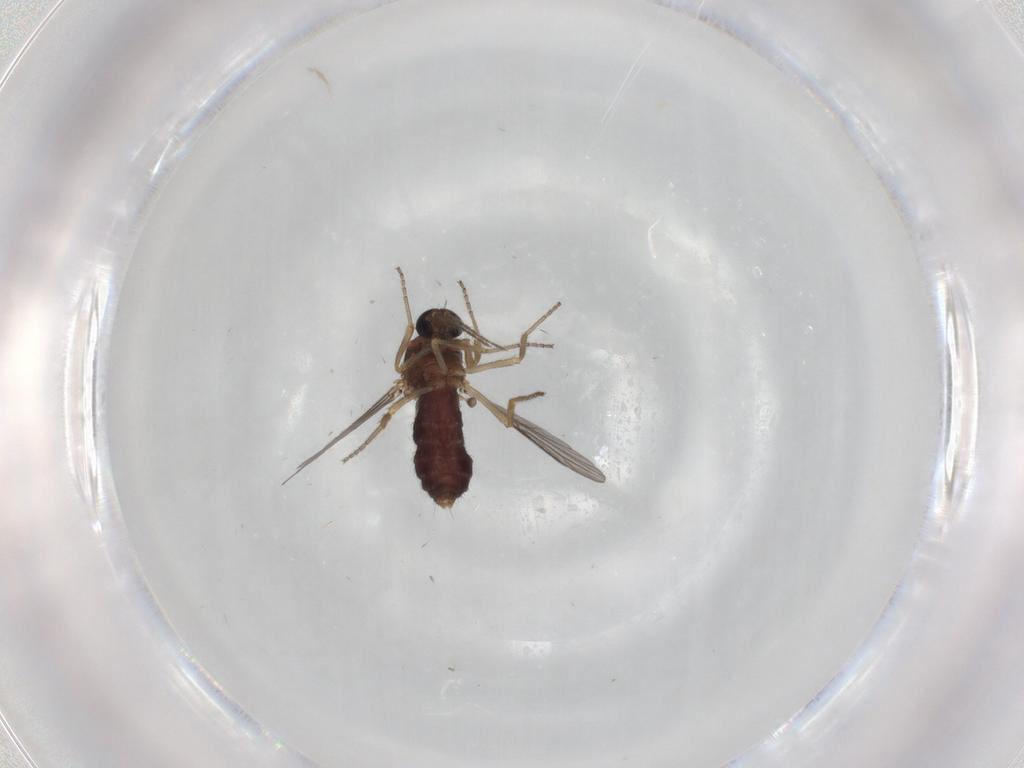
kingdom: Animalia
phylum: Arthropoda
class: Insecta
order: Diptera
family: Ceratopogonidae
